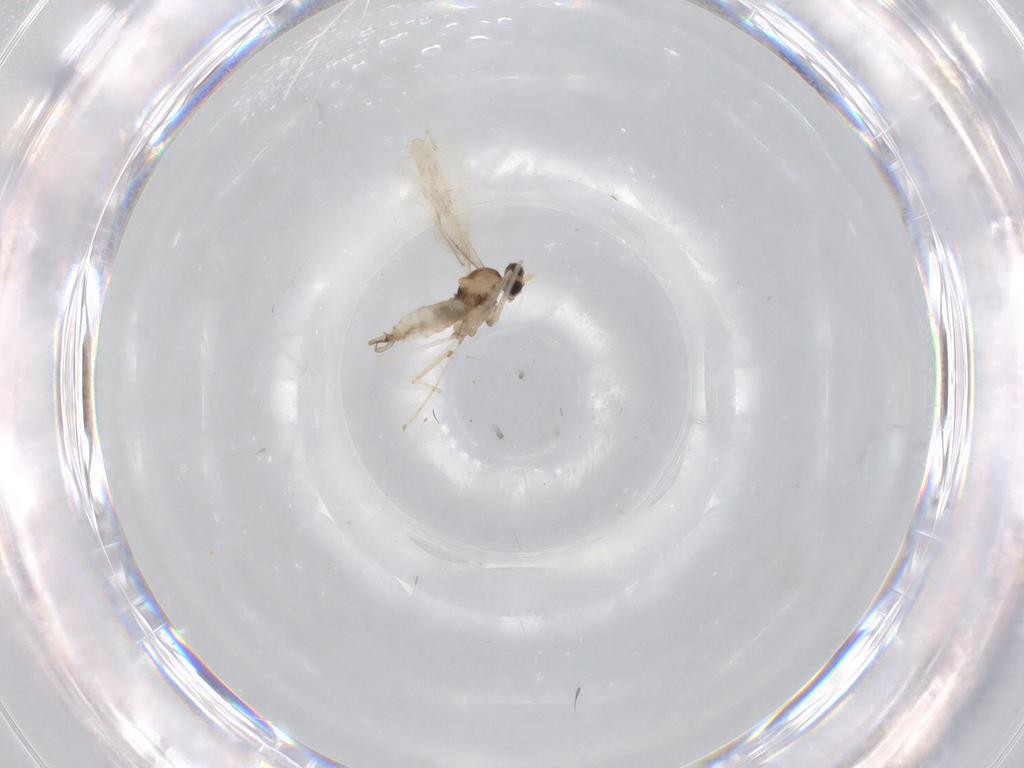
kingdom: Animalia
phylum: Arthropoda
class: Insecta
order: Diptera
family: Cecidomyiidae
